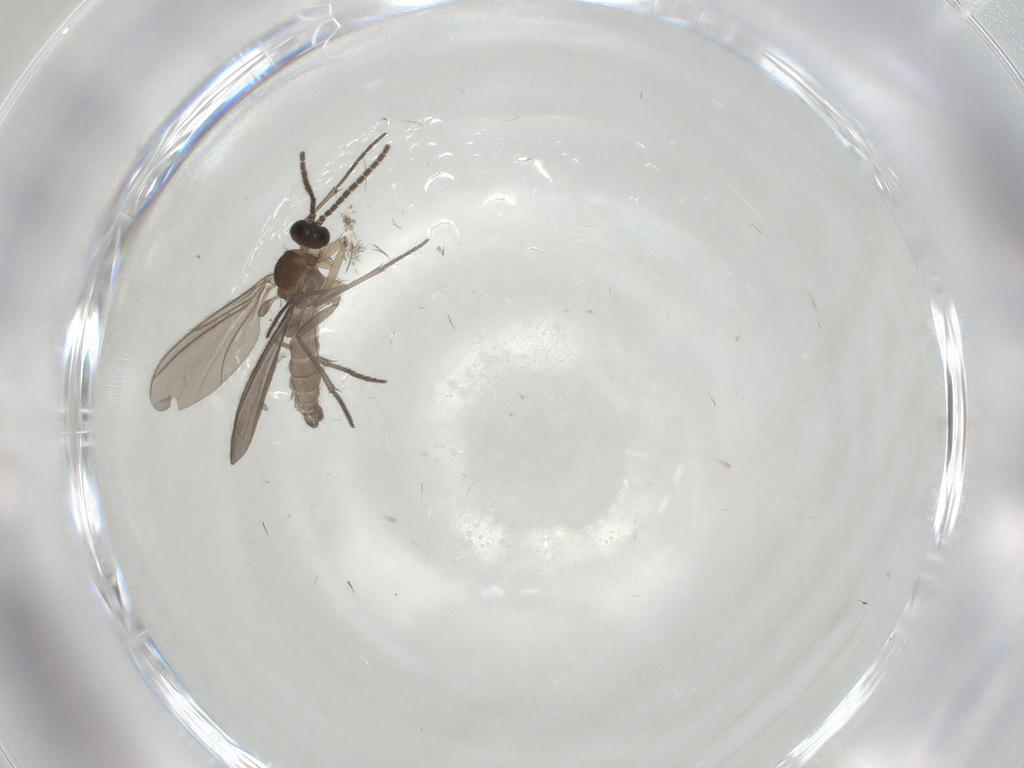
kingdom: Animalia
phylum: Arthropoda
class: Insecta
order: Diptera
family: Sciaridae
